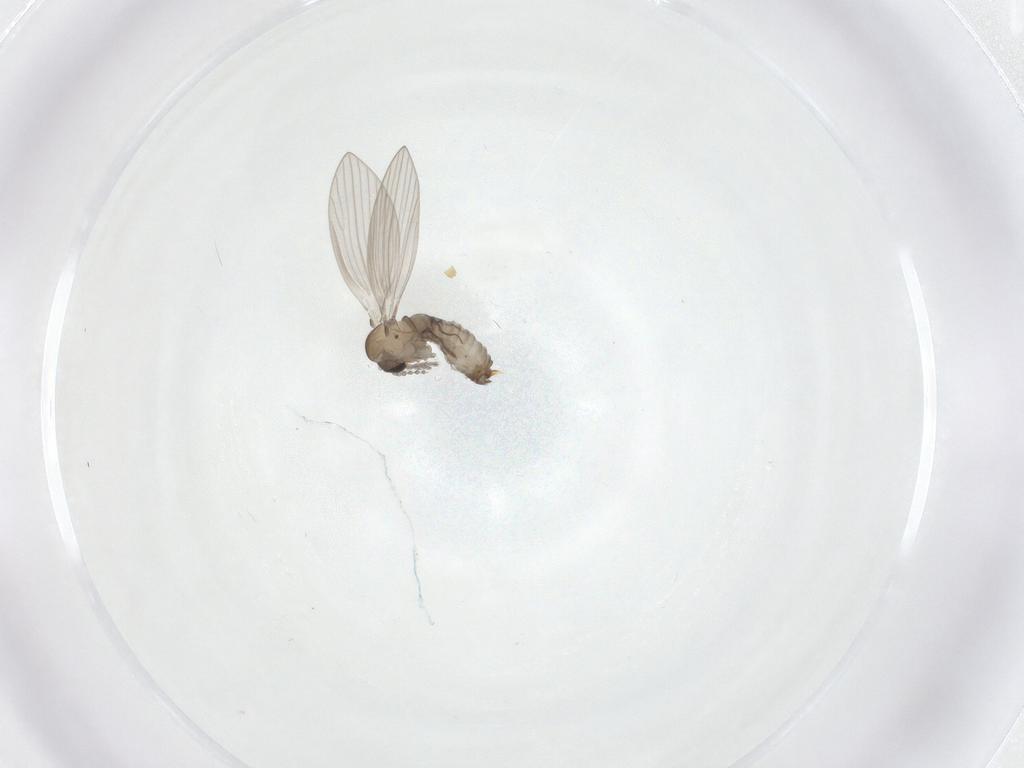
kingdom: Animalia
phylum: Arthropoda
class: Insecta
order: Diptera
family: Psychodidae
